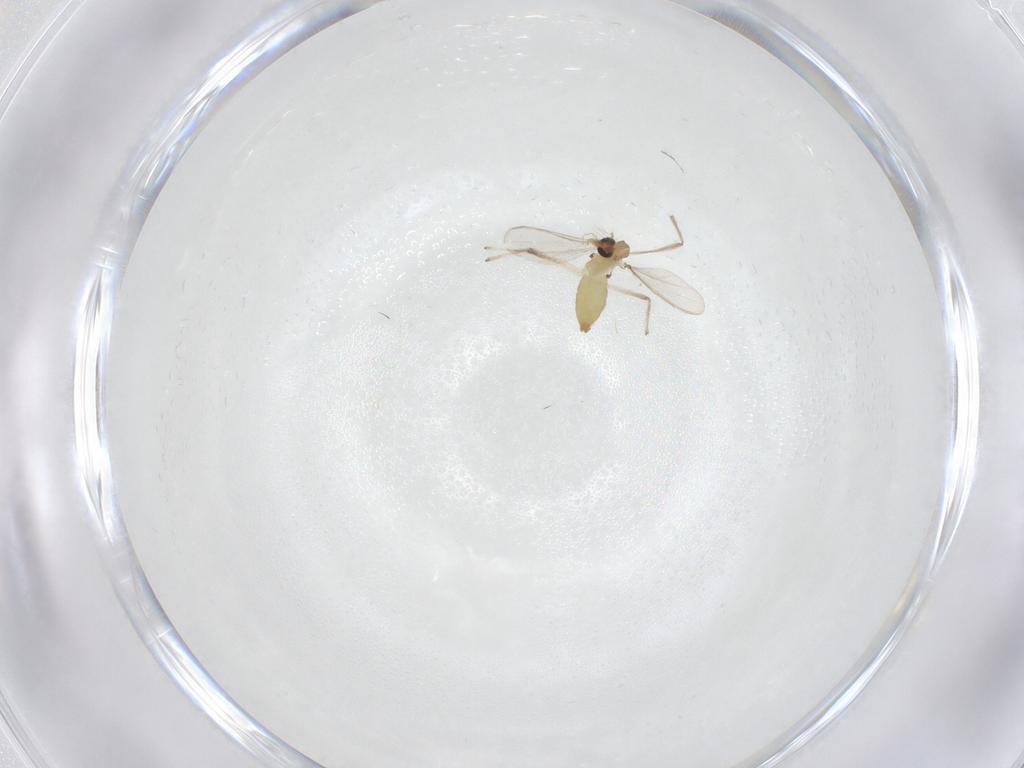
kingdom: Animalia
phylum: Arthropoda
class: Insecta
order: Diptera
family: Chironomidae
